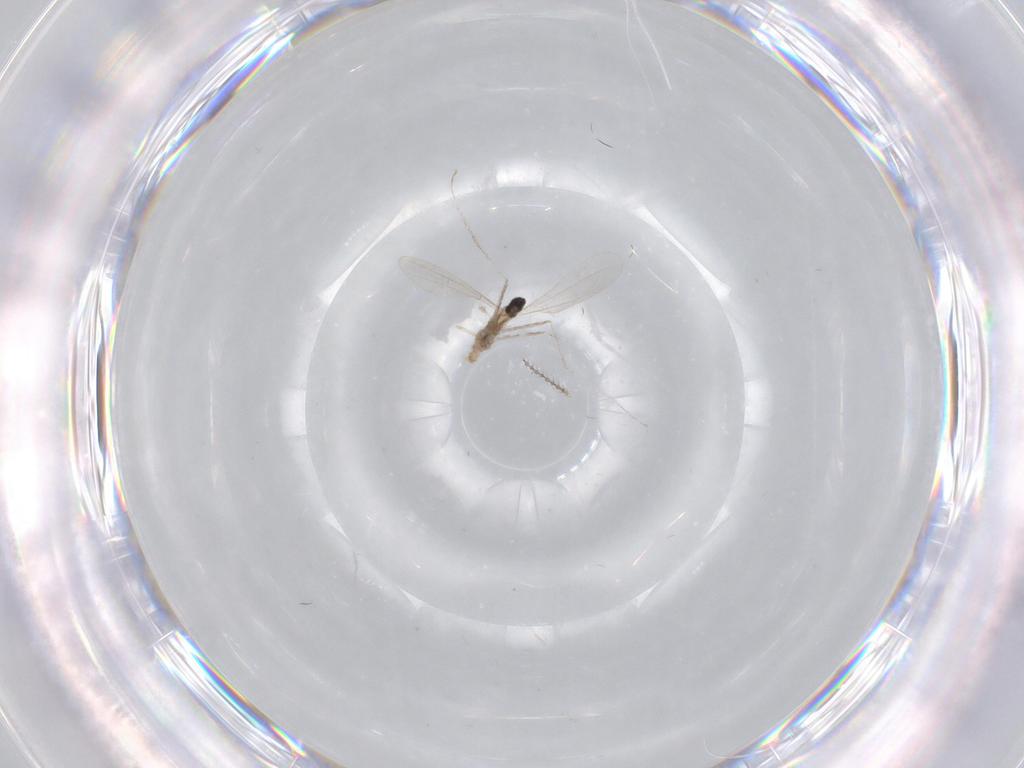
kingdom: Animalia
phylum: Arthropoda
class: Insecta
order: Diptera
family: Cecidomyiidae
